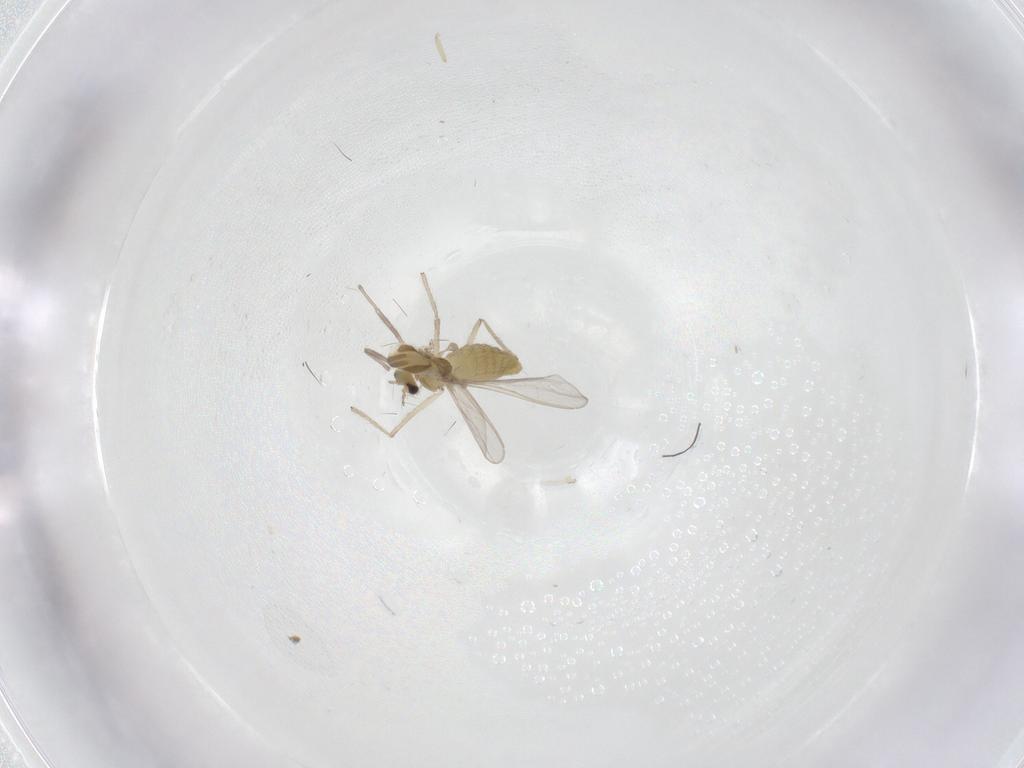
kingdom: Animalia
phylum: Arthropoda
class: Insecta
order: Diptera
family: Chironomidae
